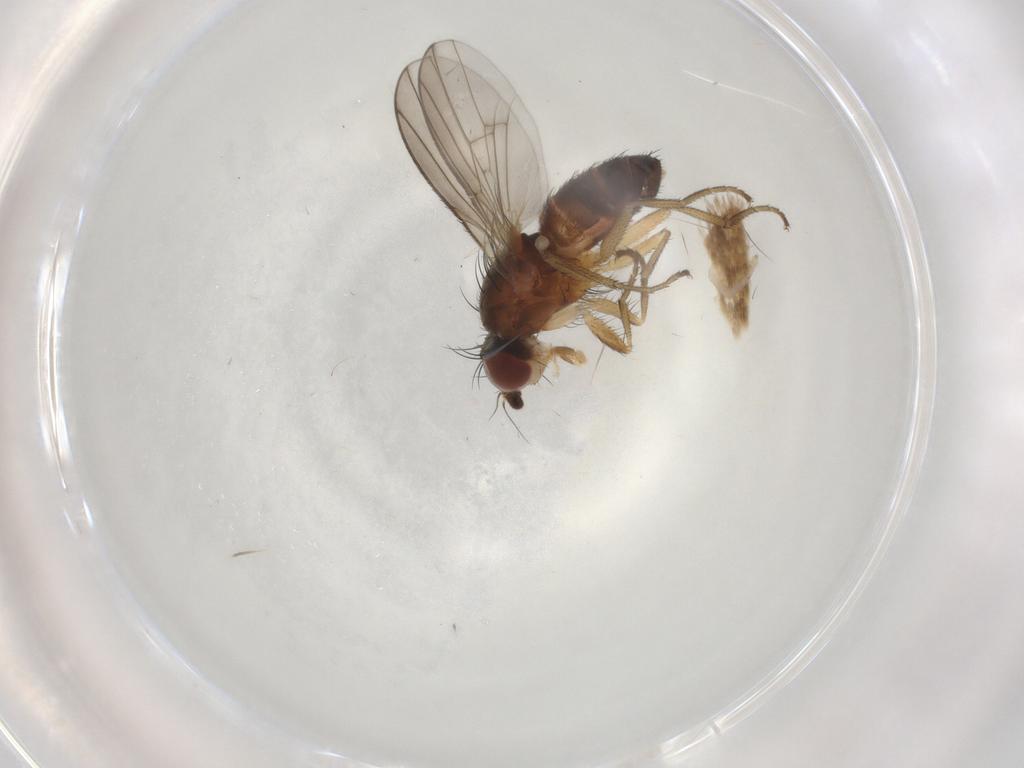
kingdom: Animalia
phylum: Arthropoda
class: Insecta
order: Diptera
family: Heleomyzidae
